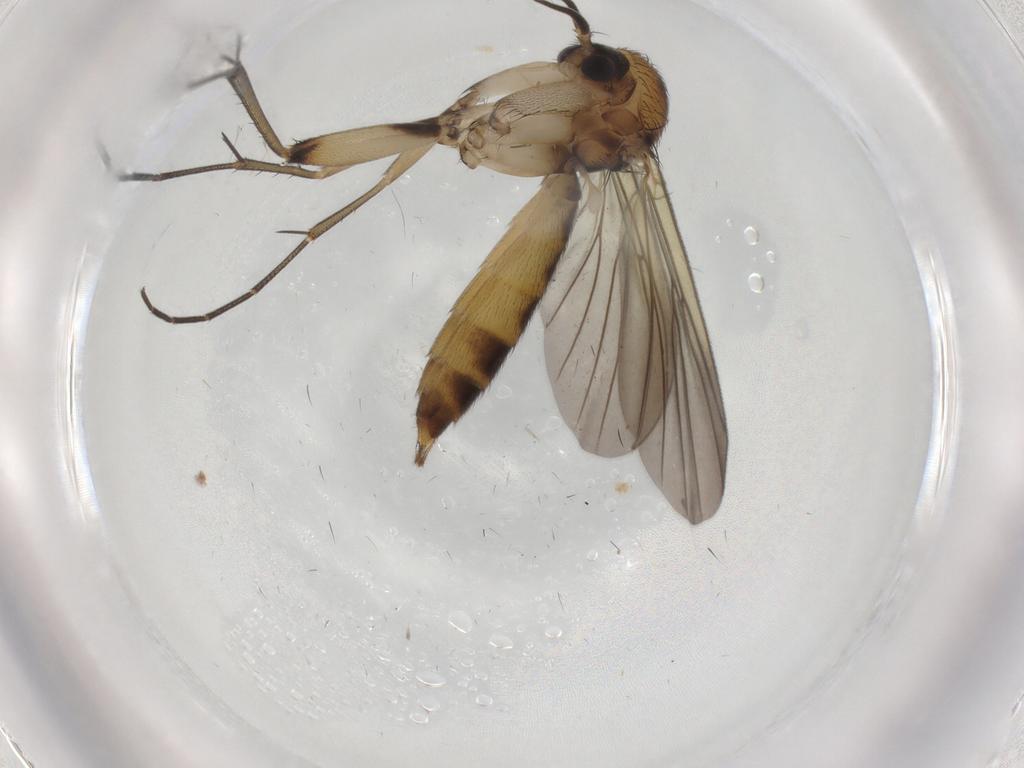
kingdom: Animalia
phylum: Arthropoda
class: Insecta
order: Diptera
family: Mycetophilidae
